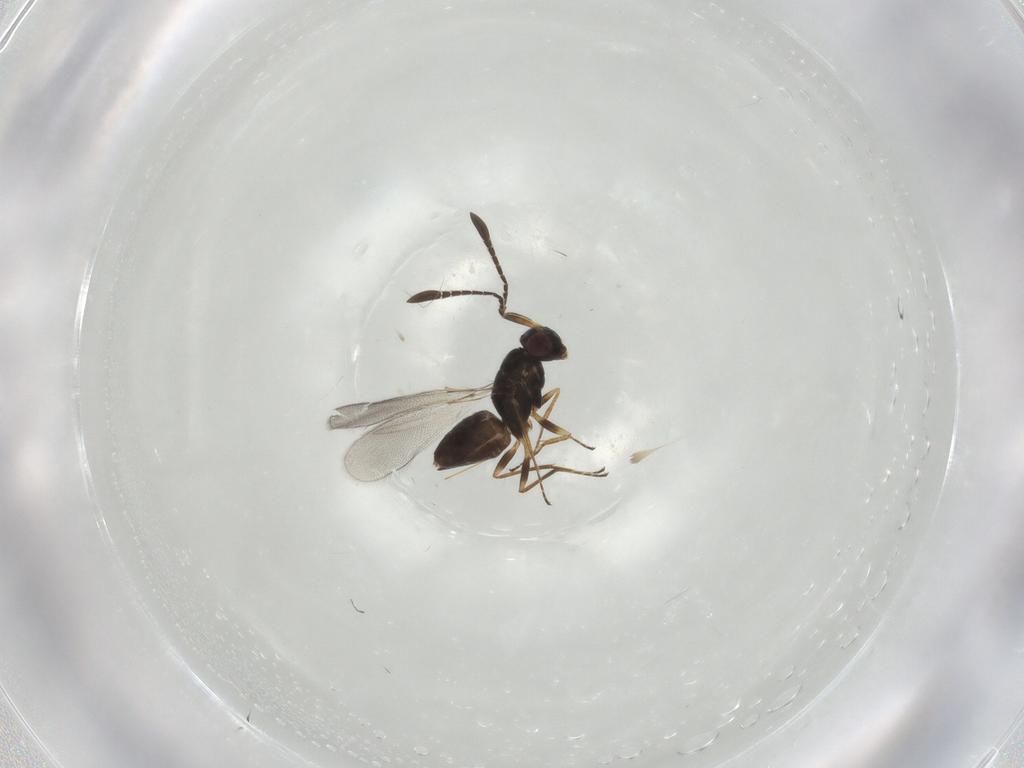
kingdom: Animalia
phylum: Arthropoda
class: Insecta
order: Hymenoptera
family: Mymaridae
